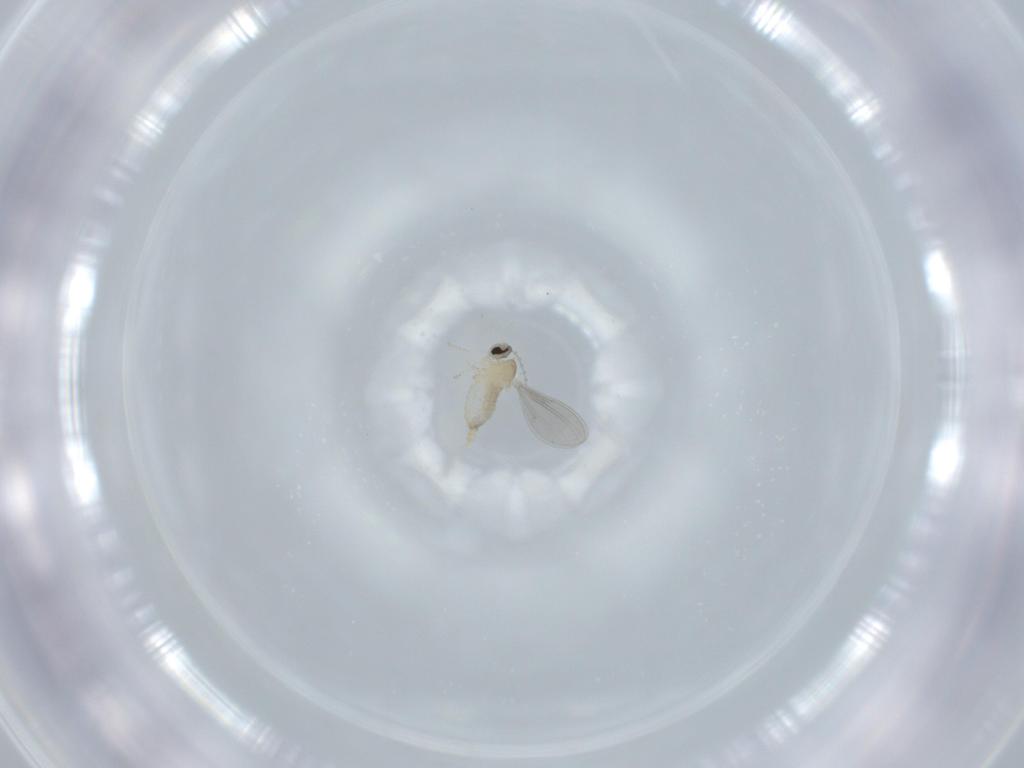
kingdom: Animalia
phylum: Arthropoda
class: Insecta
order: Diptera
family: Cecidomyiidae
